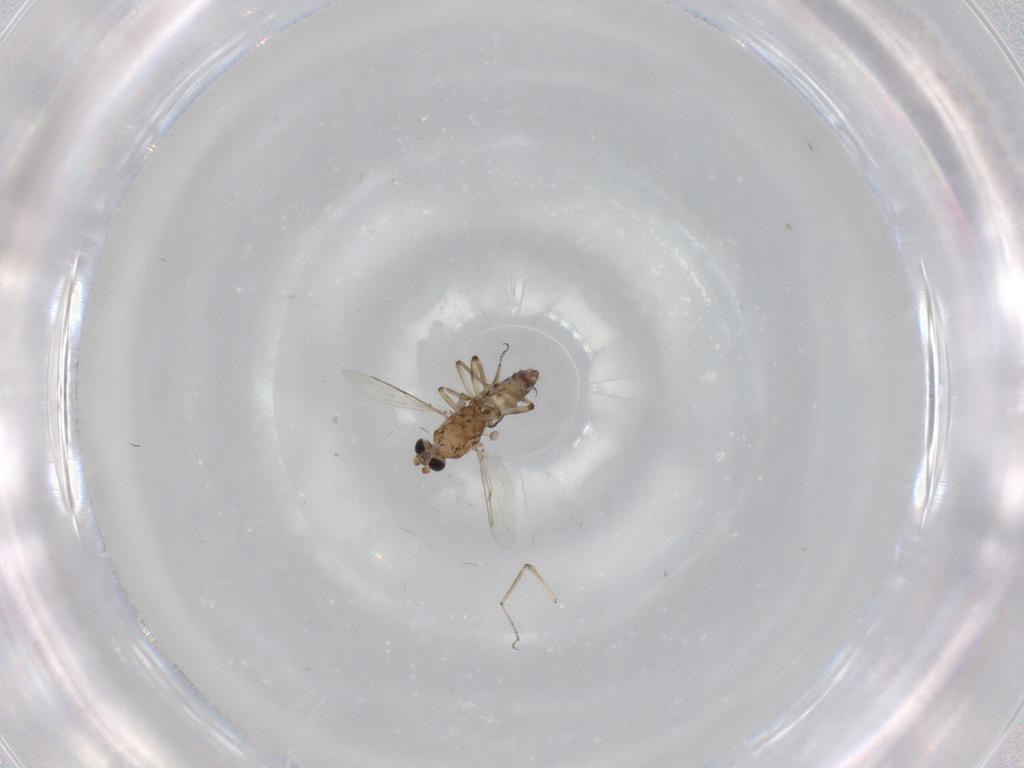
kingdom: Animalia
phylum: Arthropoda
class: Insecta
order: Diptera
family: Ceratopogonidae
